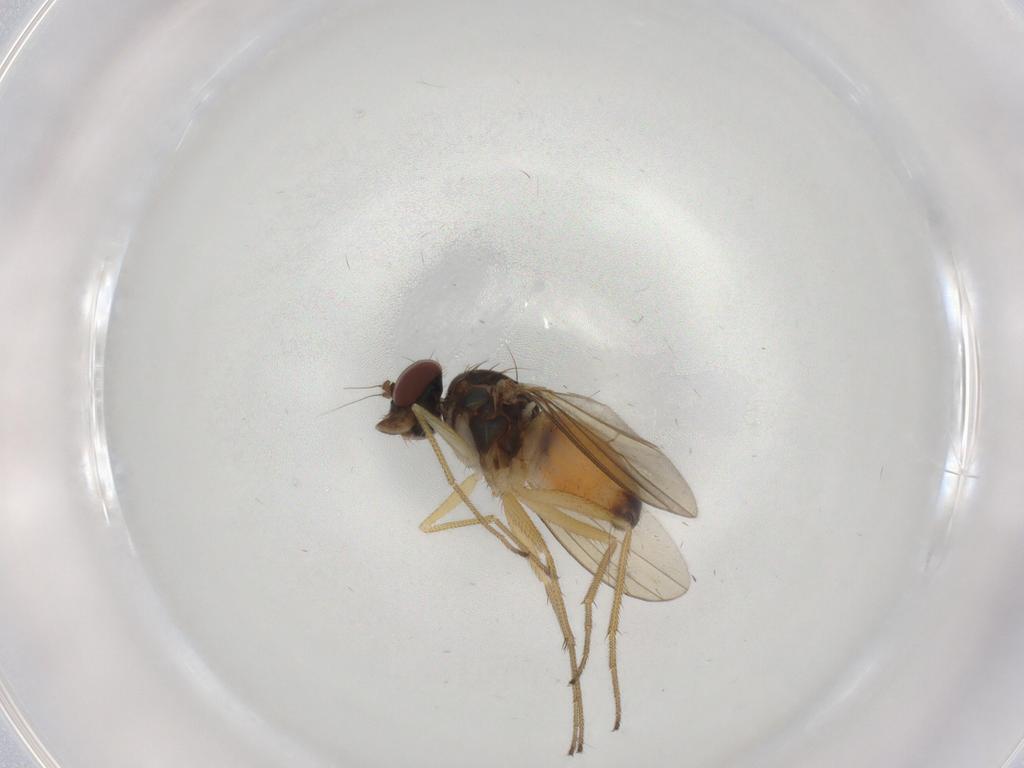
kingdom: Animalia
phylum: Arthropoda
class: Insecta
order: Diptera
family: Dolichopodidae
